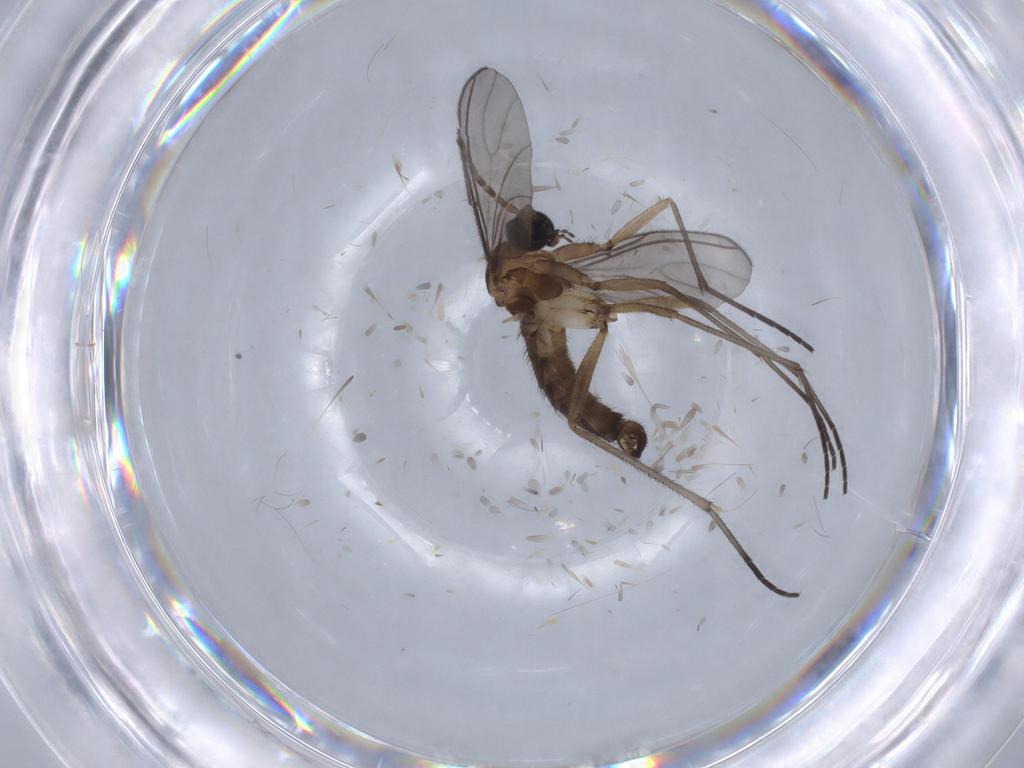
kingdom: Animalia
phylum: Arthropoda
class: Insecta
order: Diptera
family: Sciaridae
